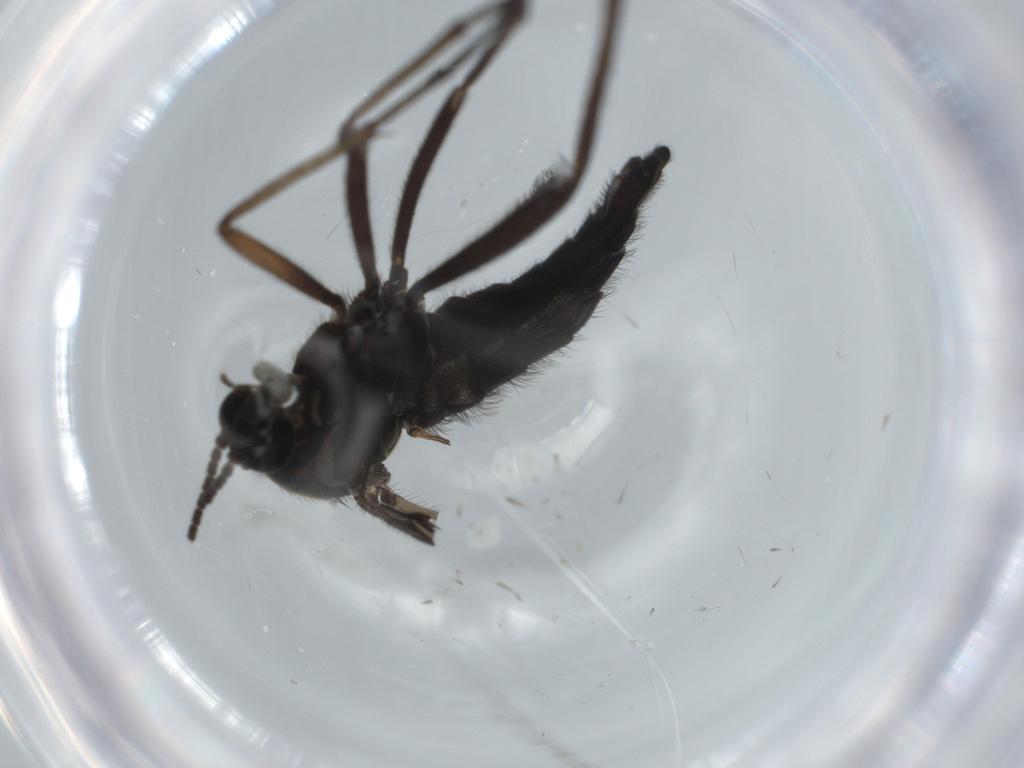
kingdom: Animalia
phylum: Arthropoda
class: Insecta
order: Diptera
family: Sciaridae
